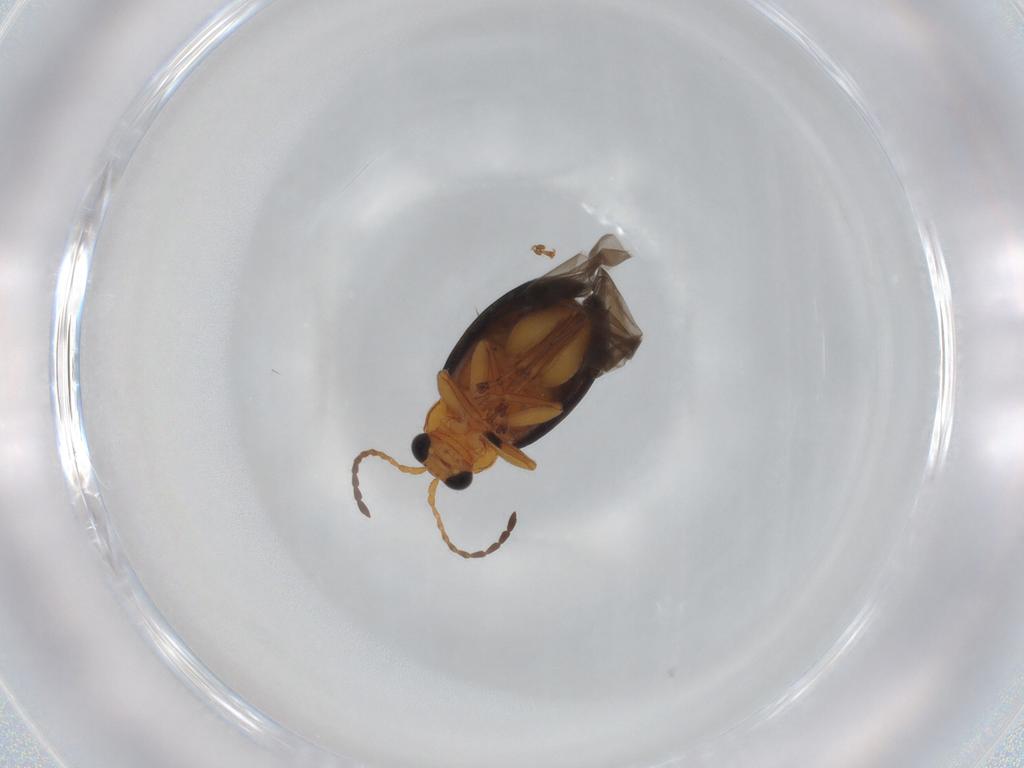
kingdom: Animalia
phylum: Arthropoda
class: Insecta
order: Coleoptera
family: Chrysomelidae
